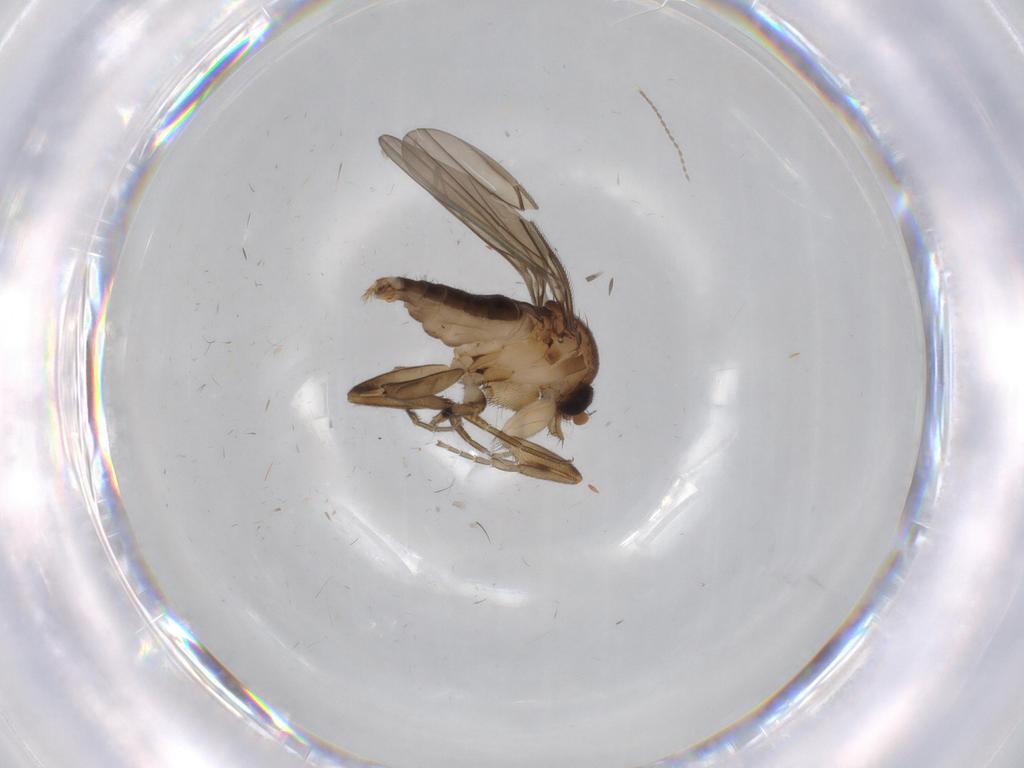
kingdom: Animalia
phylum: Arthropoda
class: Insecta
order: Diptera
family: Phoridae
